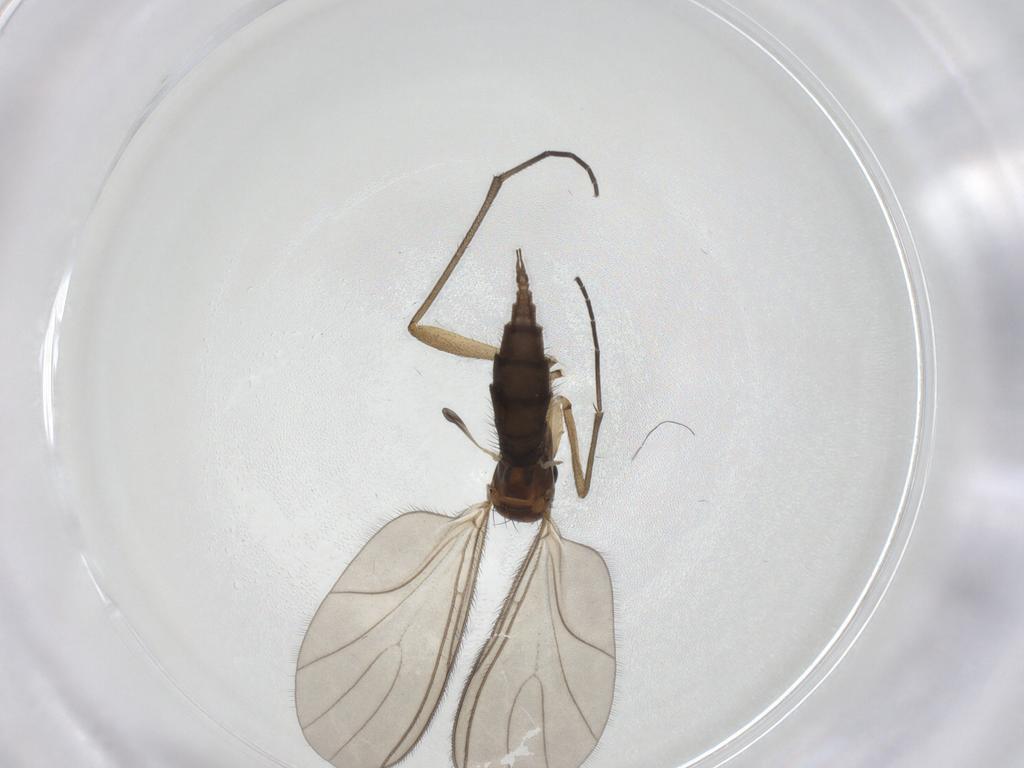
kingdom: Animalia
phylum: Arthropoda
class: Insecta
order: Diptera
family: Sciaridae
